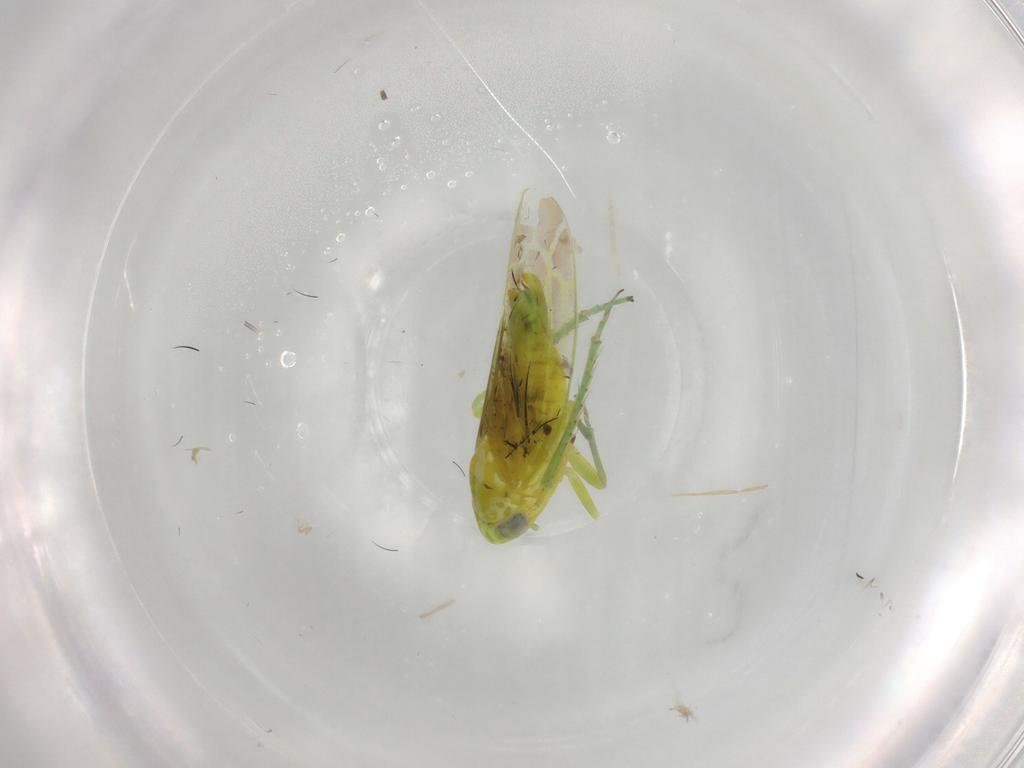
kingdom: Animalia
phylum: Arthropoda
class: Insecta
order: Hemiptera
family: Cicadellidae
